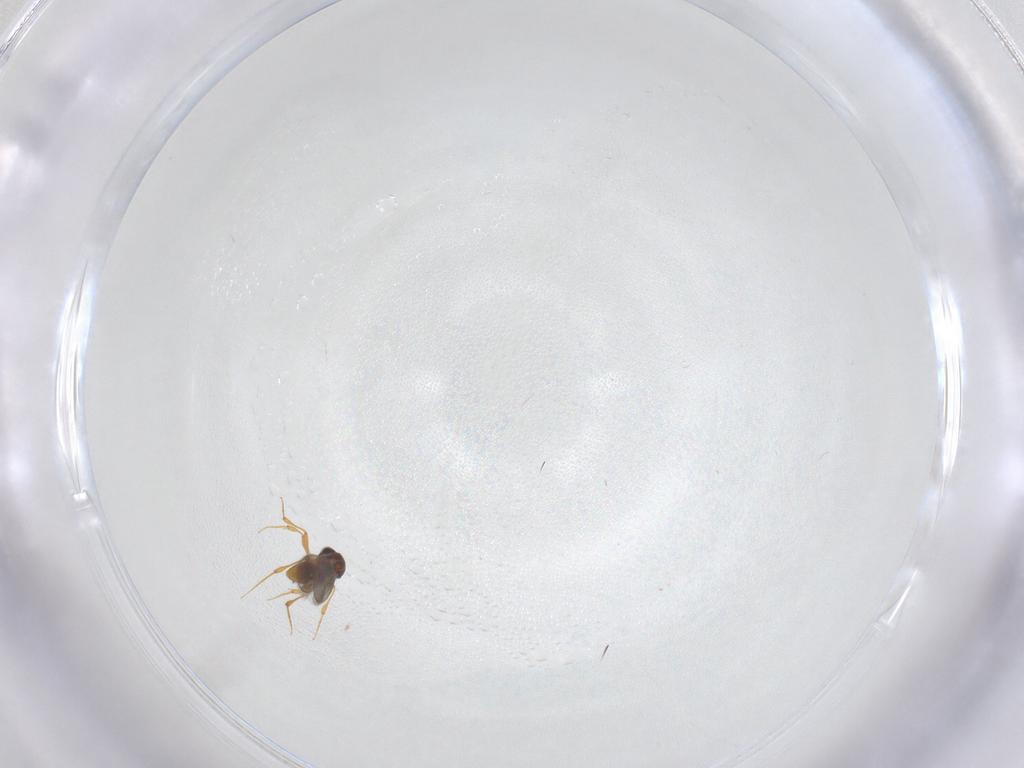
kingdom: Animalia
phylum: Arthropoda
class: Insecta
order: Hymenoptera
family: Platygastridae
